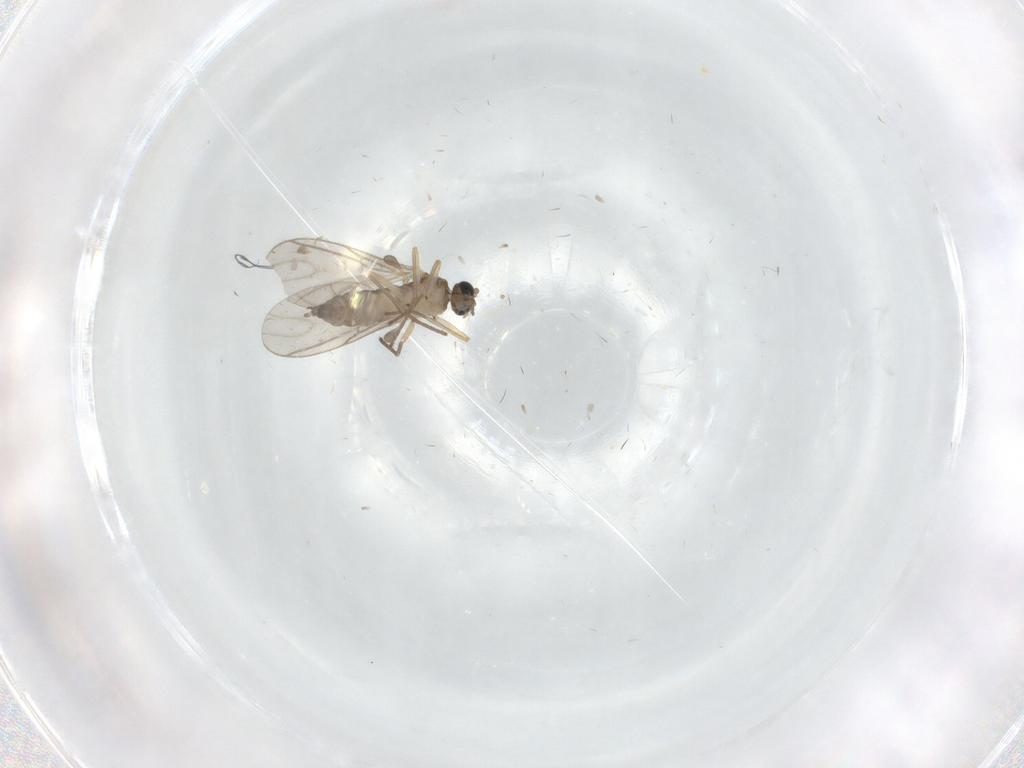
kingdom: Animalia
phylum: Arthropoda
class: Insecta
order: Diptera
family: Sciaridae
